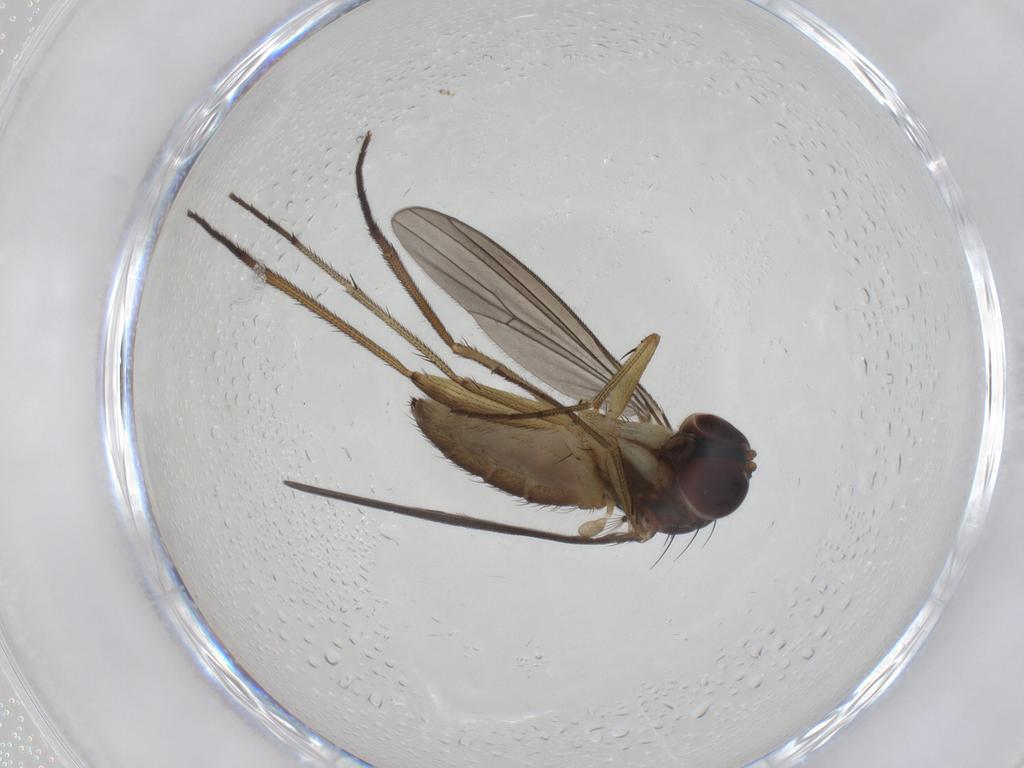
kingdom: Animalia
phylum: Arthropoda
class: Insecta
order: Diptera
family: Dolichopodidae
